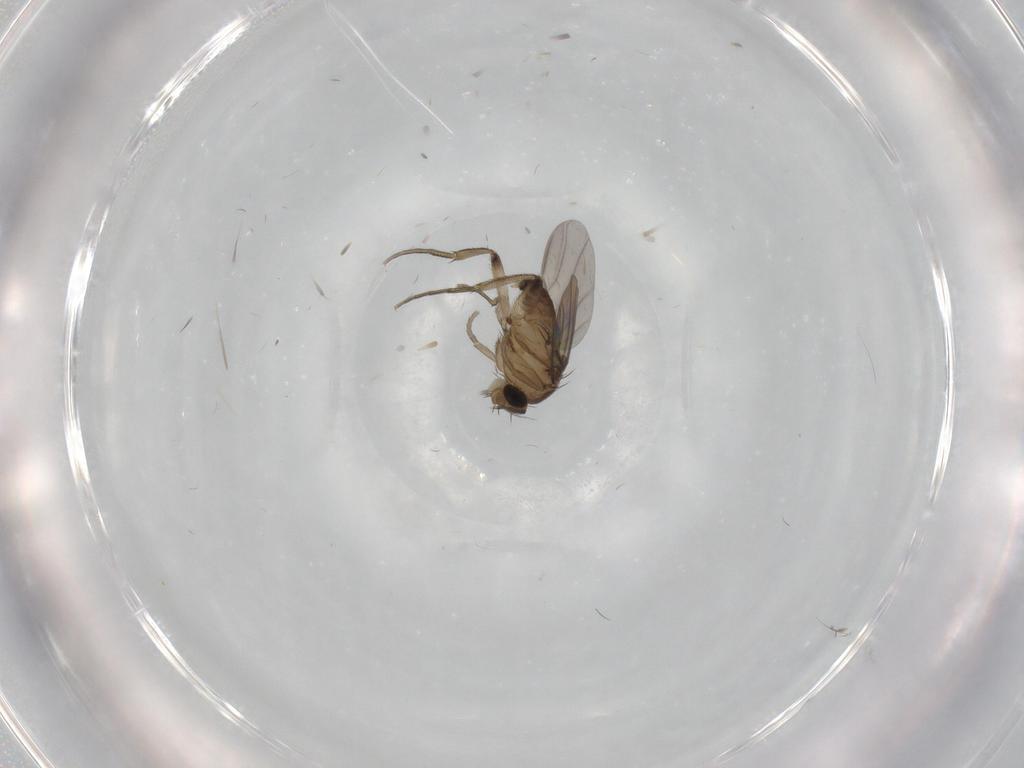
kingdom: Animalia
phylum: Arthropoda
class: Insecta
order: Diptera
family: Phoridae
